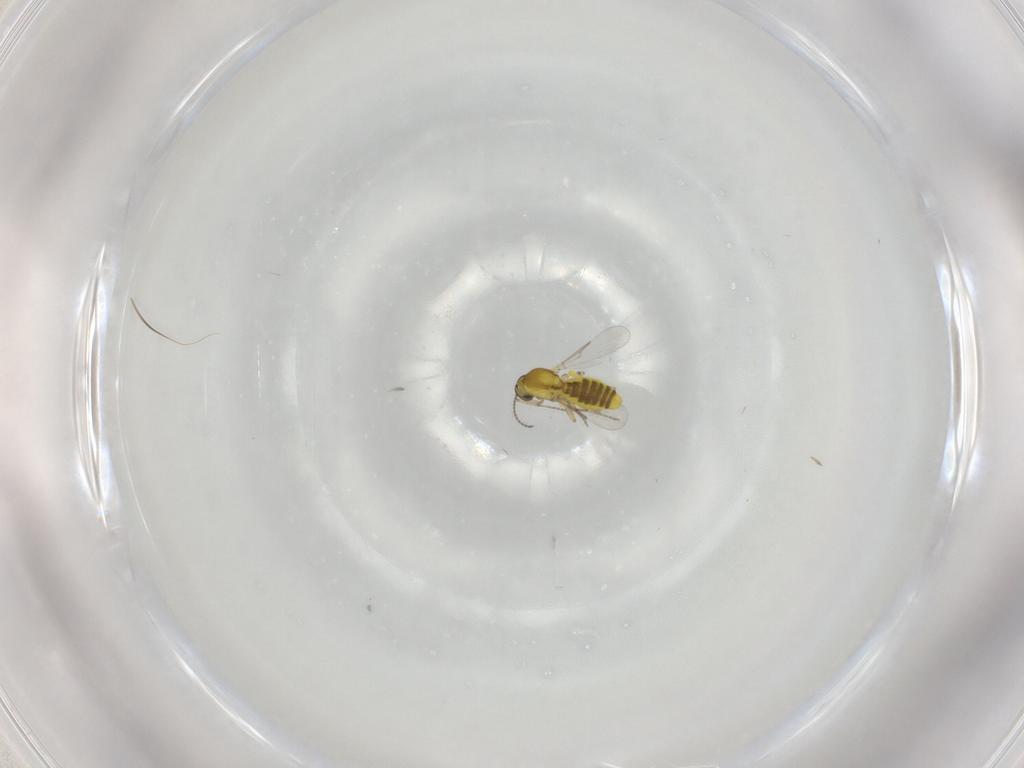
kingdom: Animalia
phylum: Arthropoda
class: Insecta
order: Diptera
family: Ceratopogonidae
